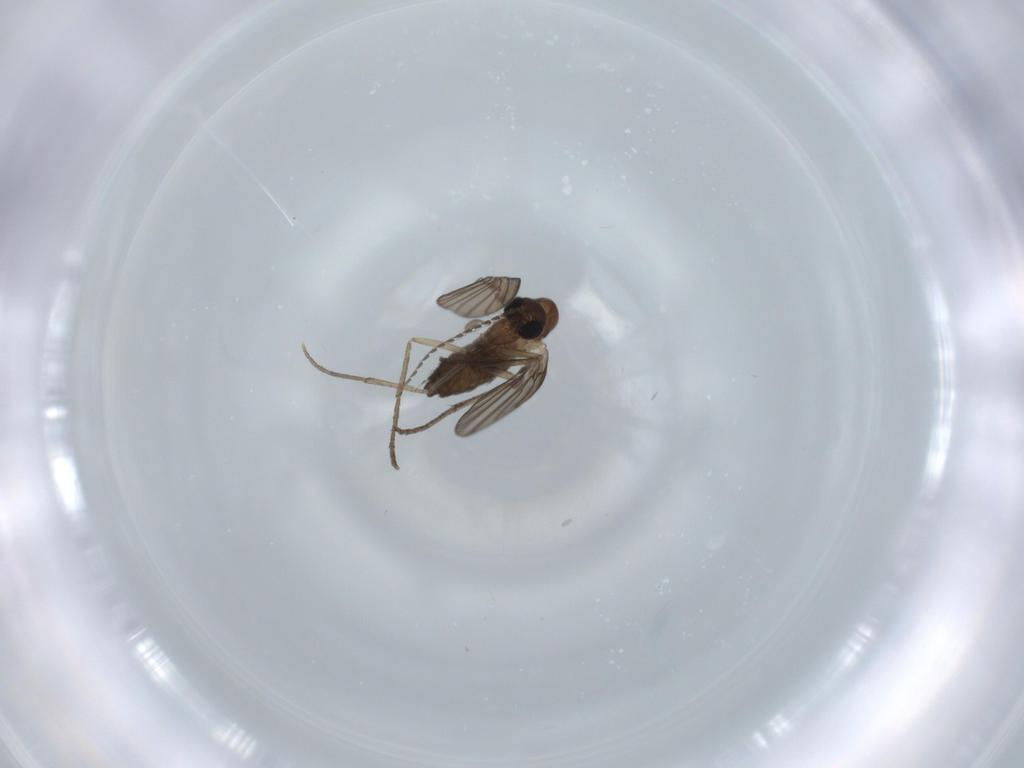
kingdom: Animalia
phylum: Arthropoda
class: Insecta
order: Diptera
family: Psychodidae
